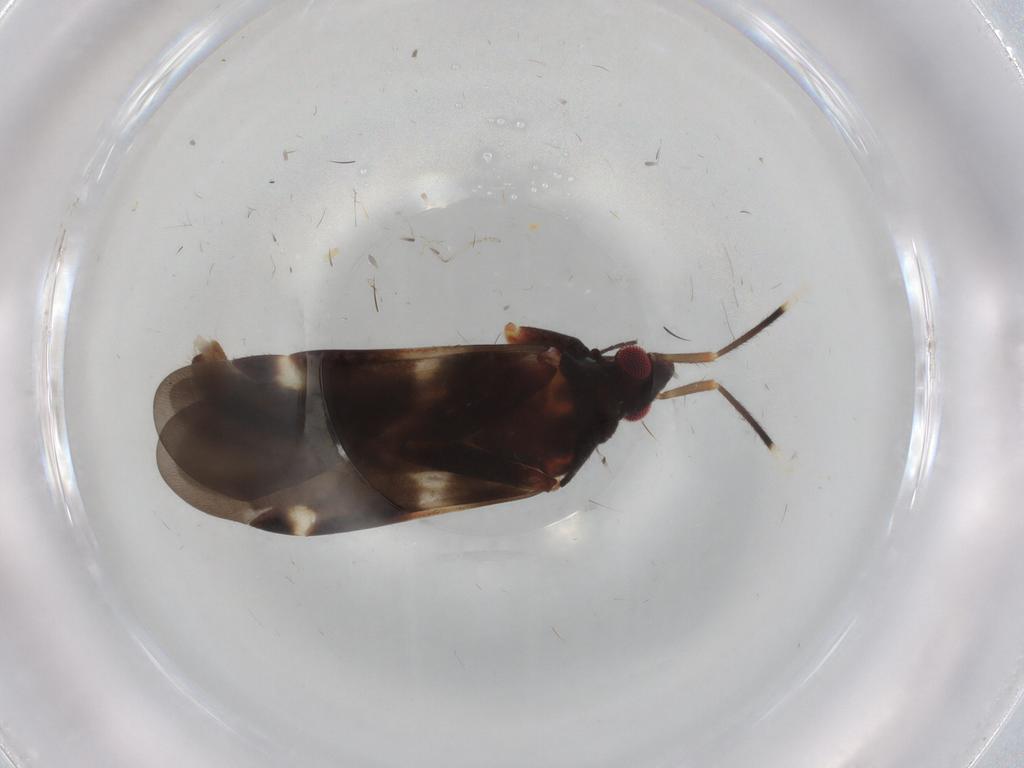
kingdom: Animalia
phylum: Arthropoda
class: Insecta
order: Hemiptera
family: Miridae
